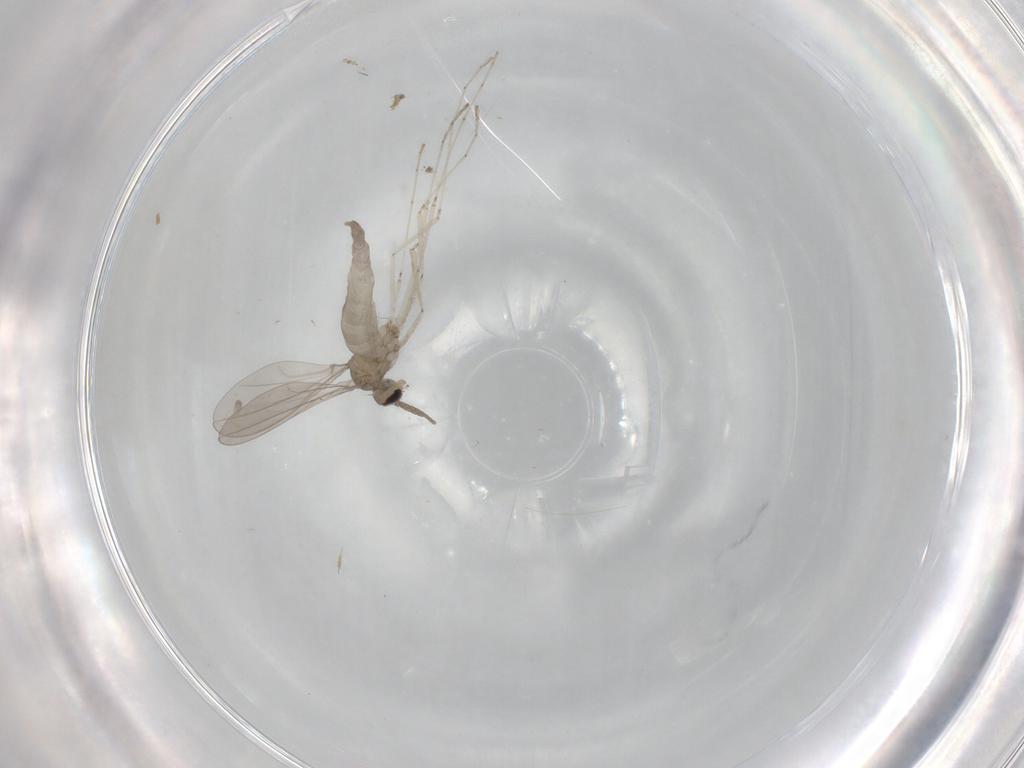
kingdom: Animalia
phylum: Arthropoda
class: Insecta
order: Diptera
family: Cecidomyiidae
